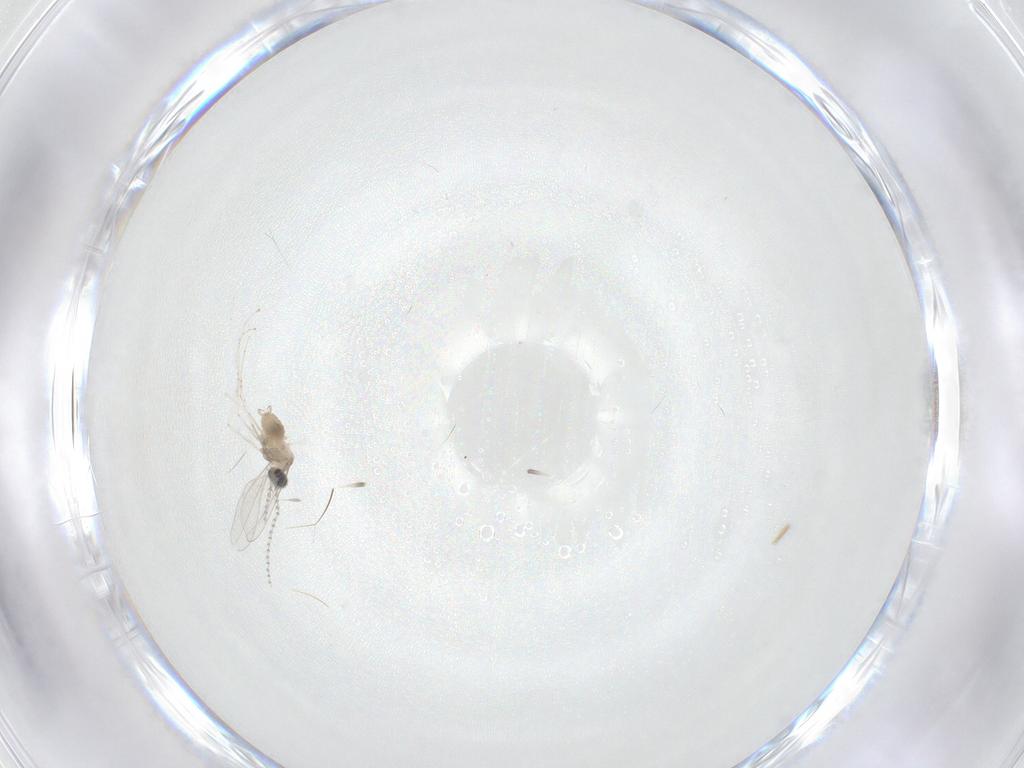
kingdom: Animalia
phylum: Arthropoda
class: Insecta
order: Diptera
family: Cecidomyiidae
